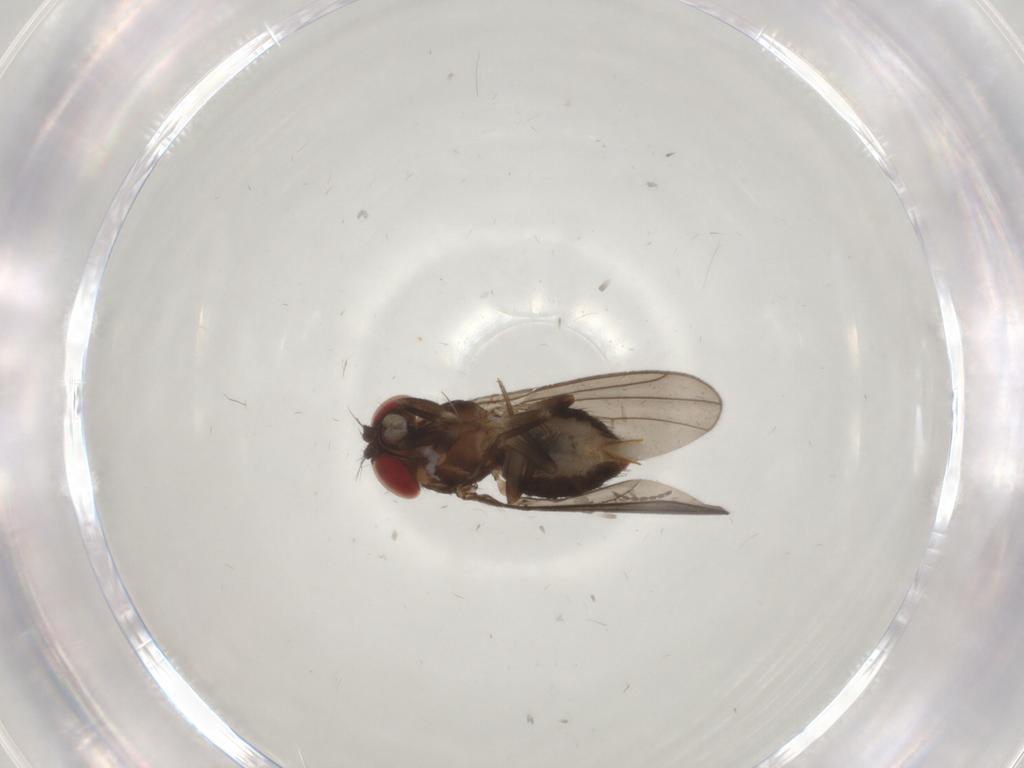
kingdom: Animalia
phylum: Arthropoda
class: Insecta
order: Diptera
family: Drosophilidae
